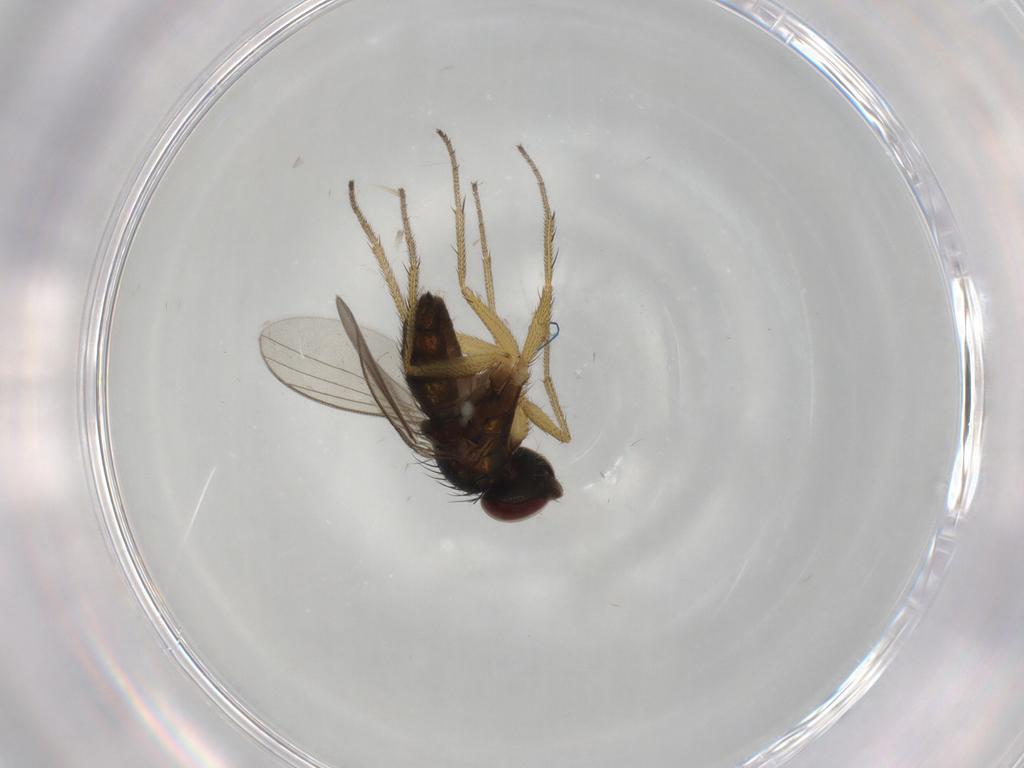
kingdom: Animalia
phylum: Arthropoda
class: Insecta
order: Diptera
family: Dolichopodidae
